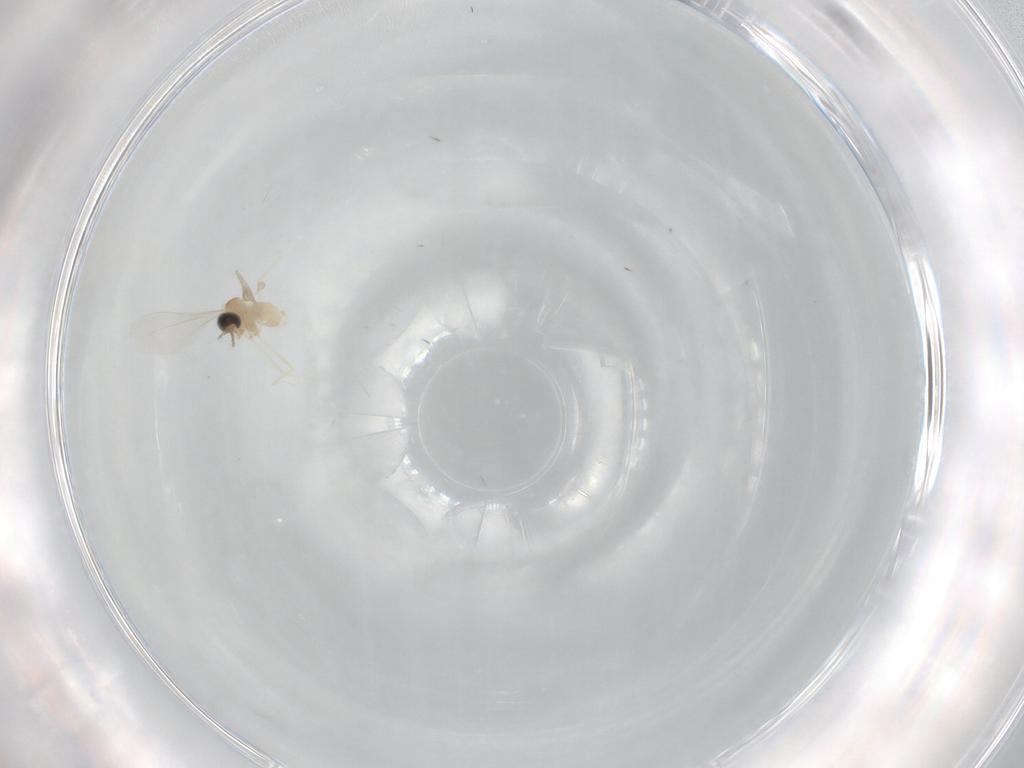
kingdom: Animalia
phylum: Arthropoda
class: Insecta
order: Diptera
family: Cecidomyiidae
